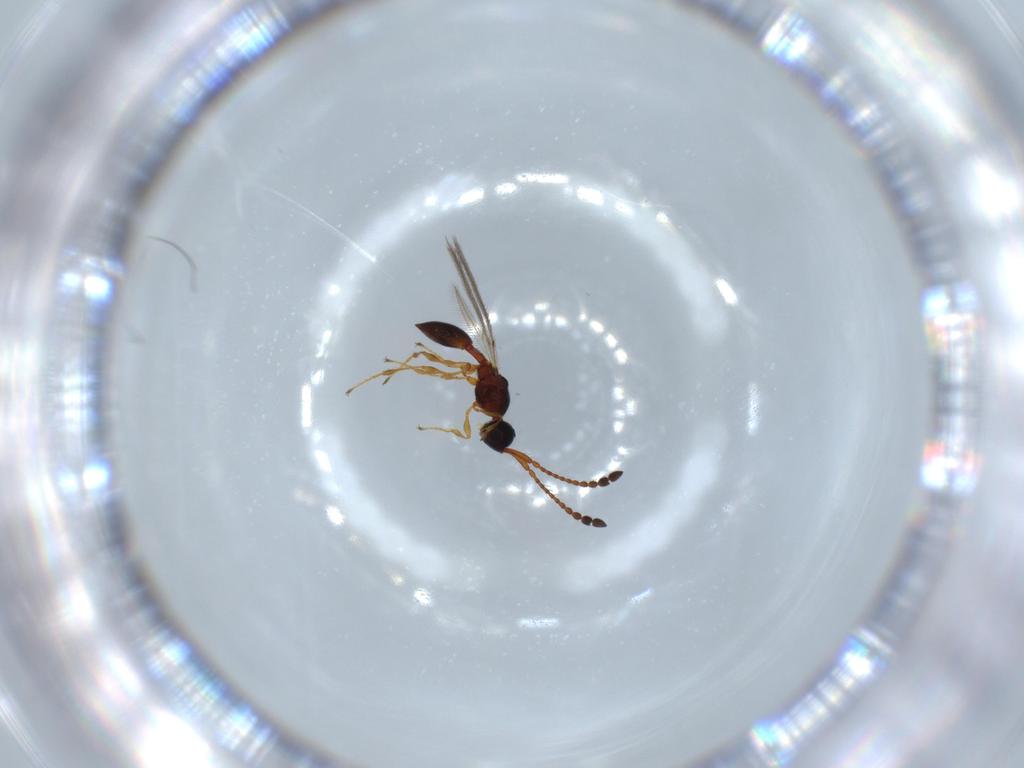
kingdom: Animalia
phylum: Arthropoda
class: Insecta
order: Hymenoptera
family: Diapriidae
